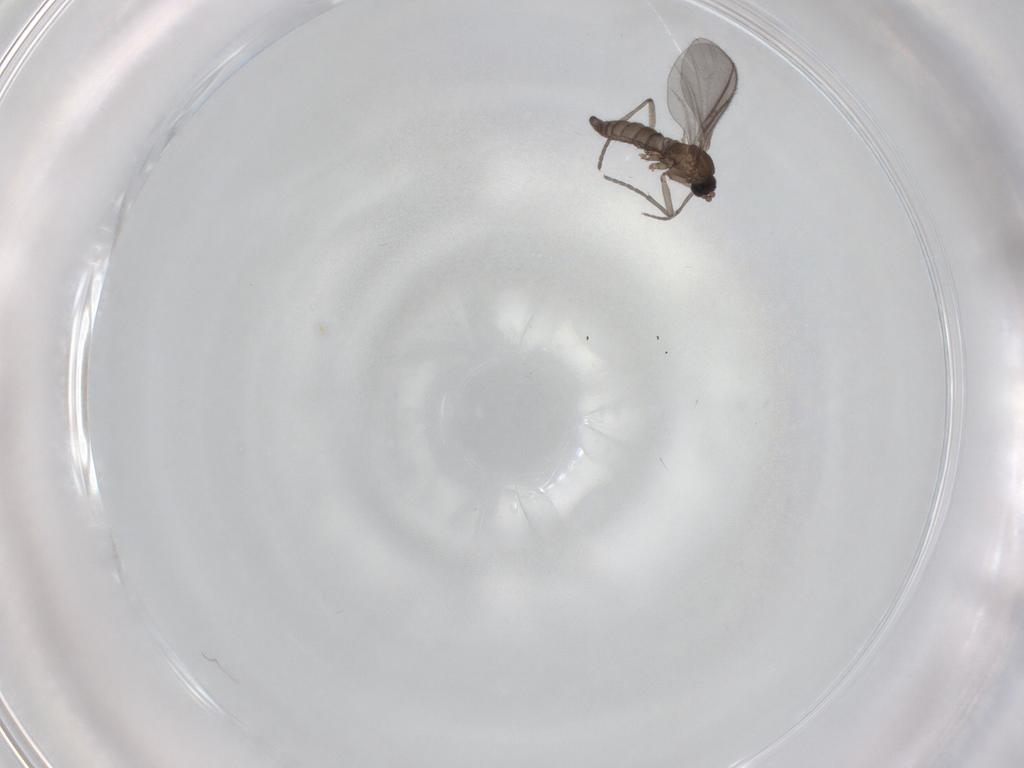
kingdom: Animalia
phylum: Arthropoda
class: Insecta
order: Diptera
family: Sciaridae
